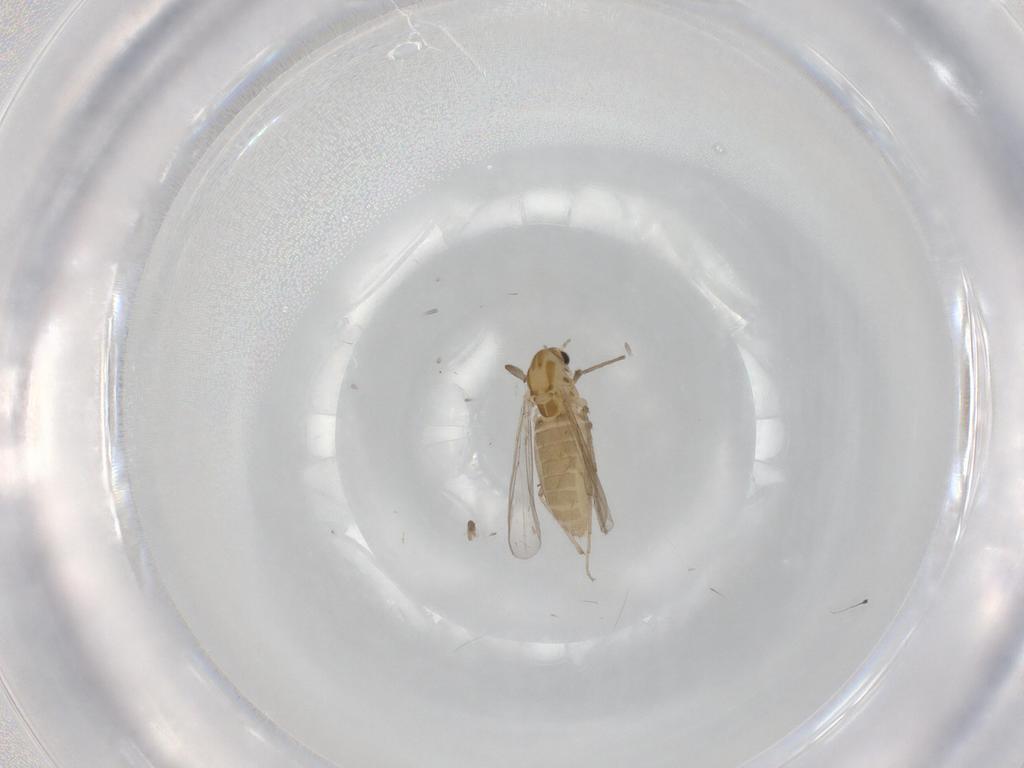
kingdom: Animalia
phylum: Arthropoda
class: Insecta
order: Diptera
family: Chironomidae
